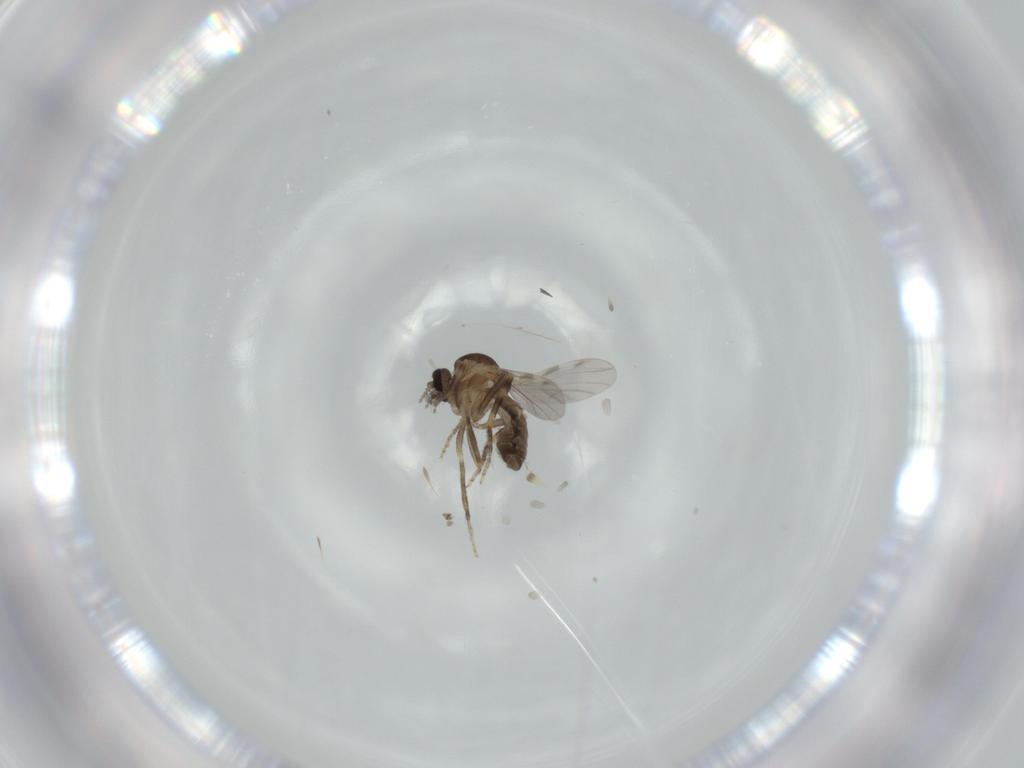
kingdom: Animalia
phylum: Arthropoda
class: Insecta
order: Diptera
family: Ceratopogonidae
